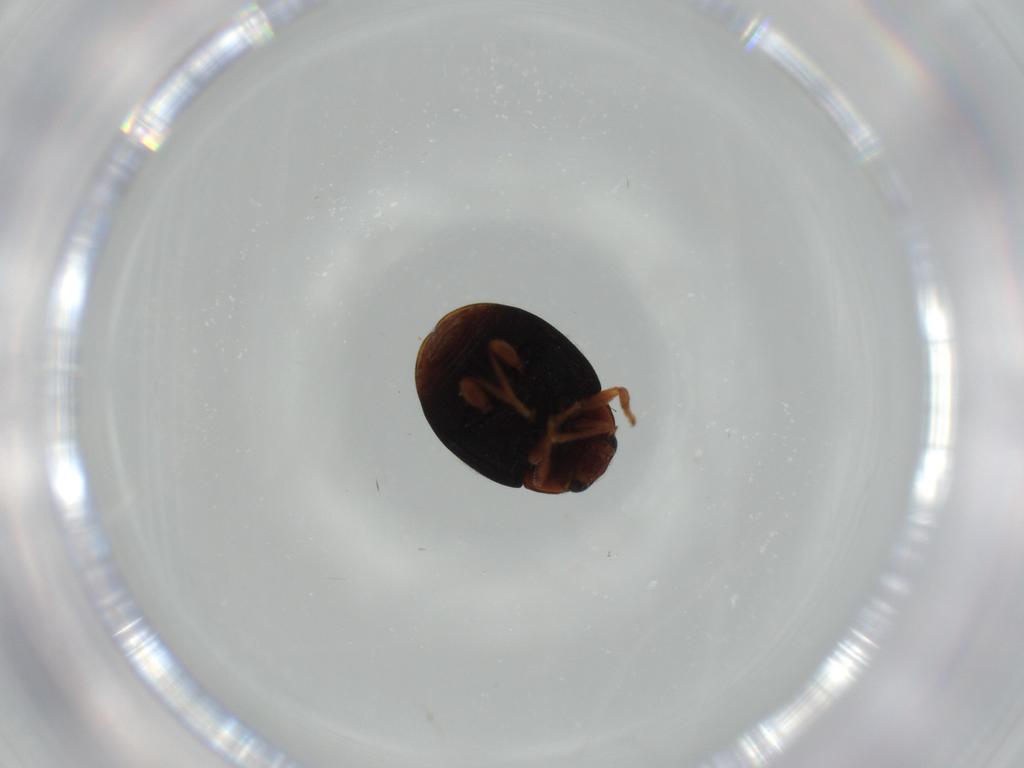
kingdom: Animalia
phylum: Arthropoda
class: Insecta
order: Coleoptera
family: Coccinellidae
